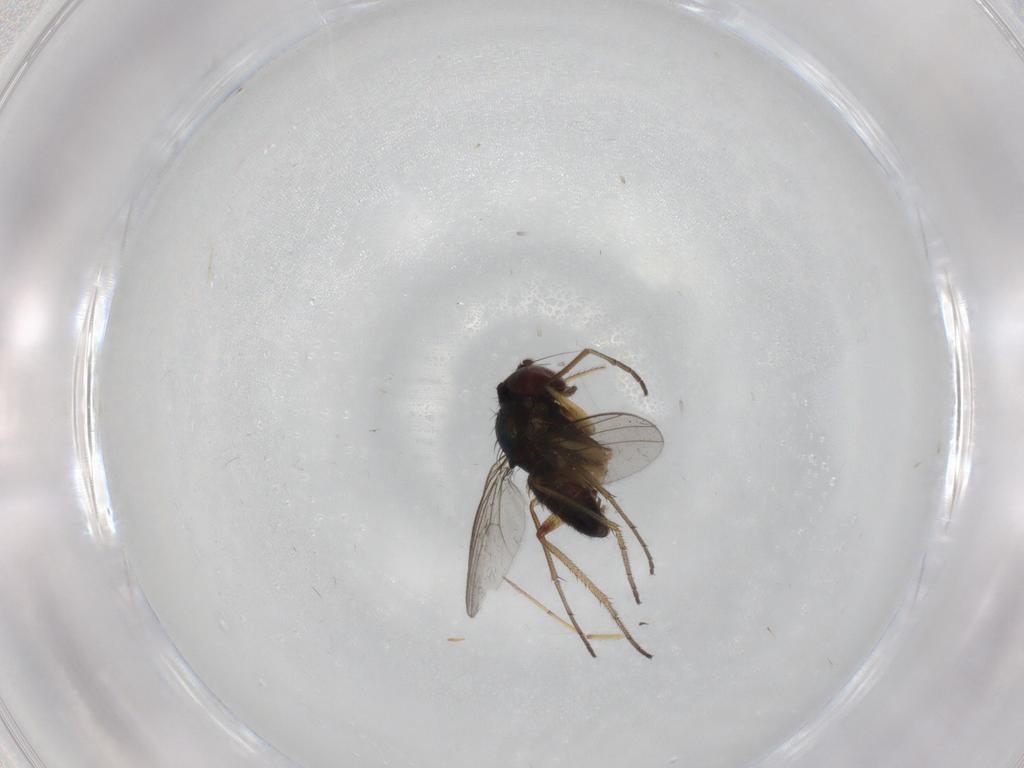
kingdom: Animalia
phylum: Arthropoda
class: Insecta
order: Diptera
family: Dolichopodidae
